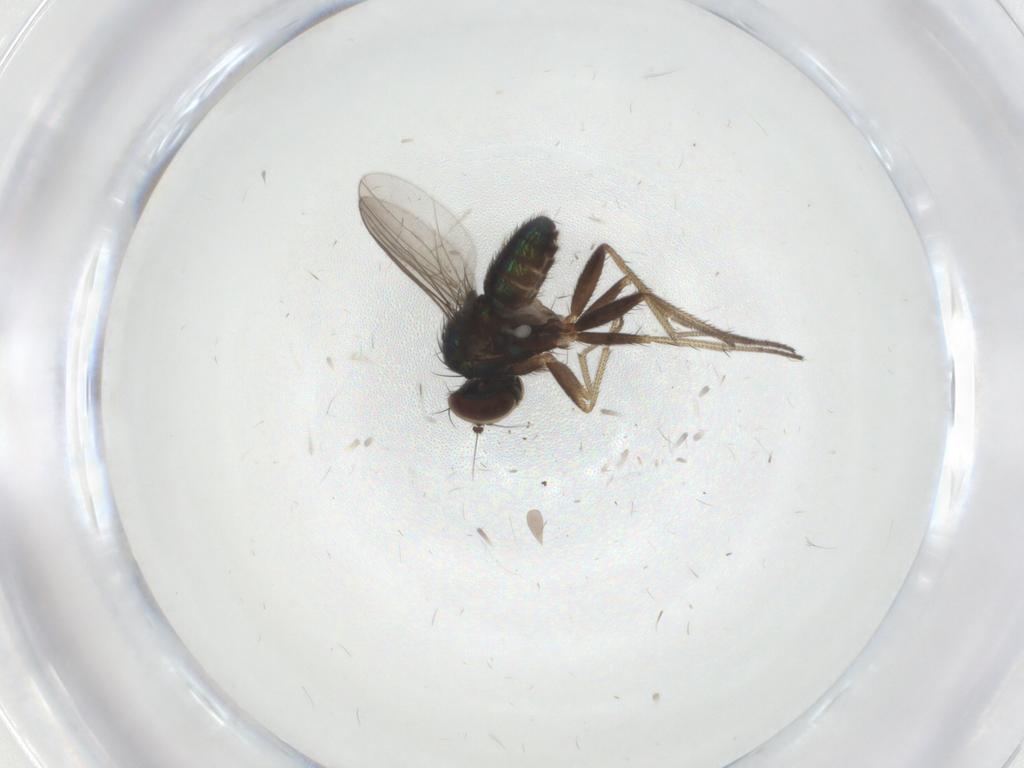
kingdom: Animalia
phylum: Arthropoda
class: Insecta
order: Diptera
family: Dolichopodidae
